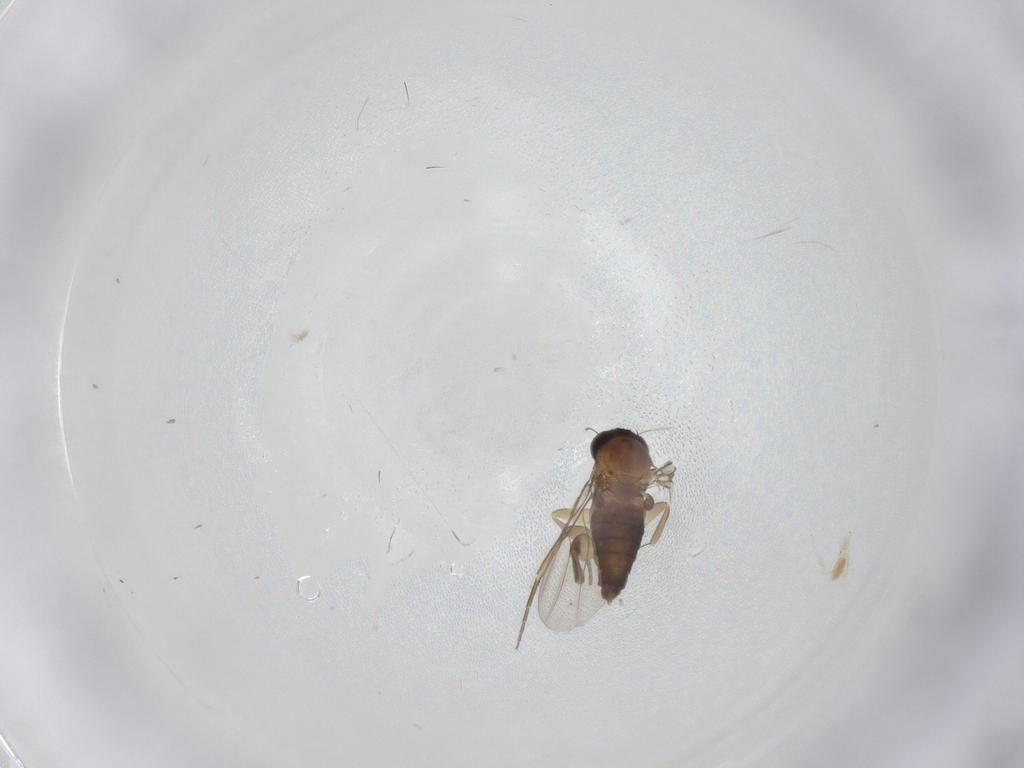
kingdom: Animalia
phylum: Arthropoda
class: Insecta
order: Diptera
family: Phoridae
